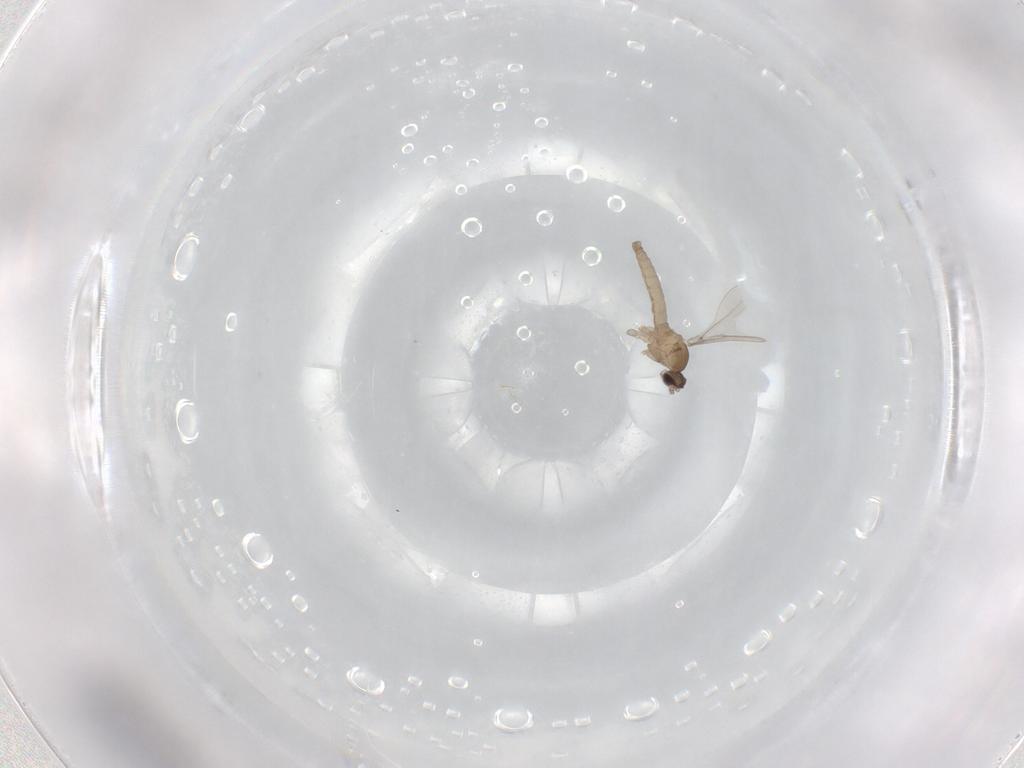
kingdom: Animalia
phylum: Arthropoda
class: Insecta
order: Diptera
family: Cecidomyiidae
